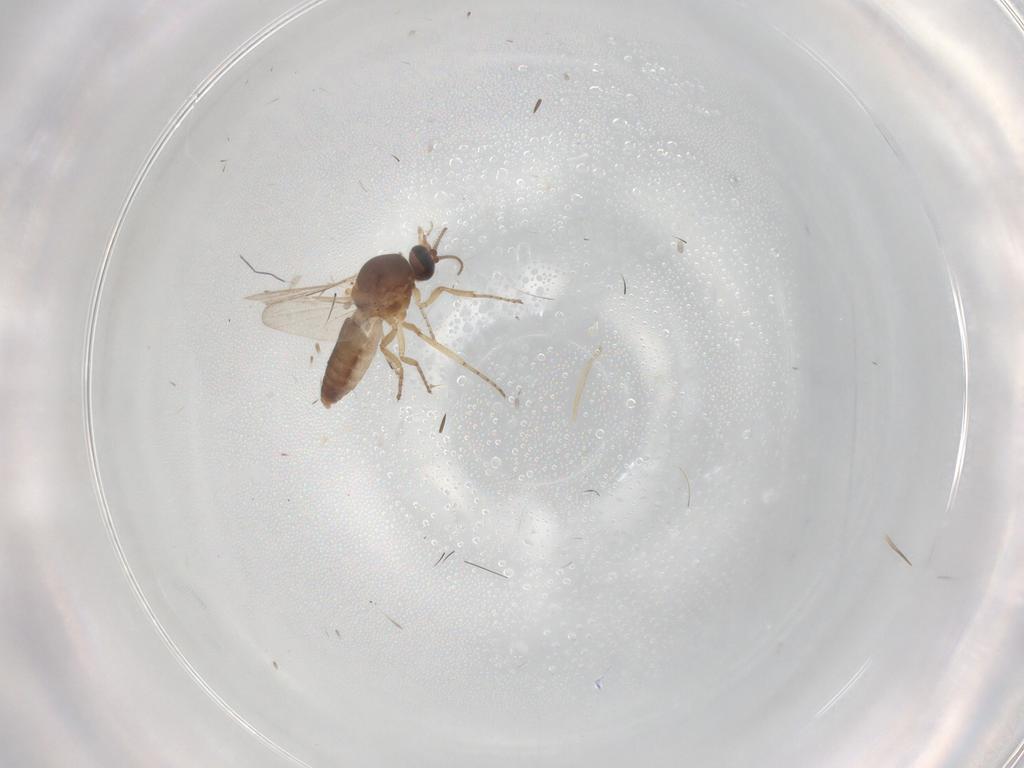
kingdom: Animalia
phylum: Arthropoda
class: Insecta
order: Diptera
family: Ceratopogonidae
